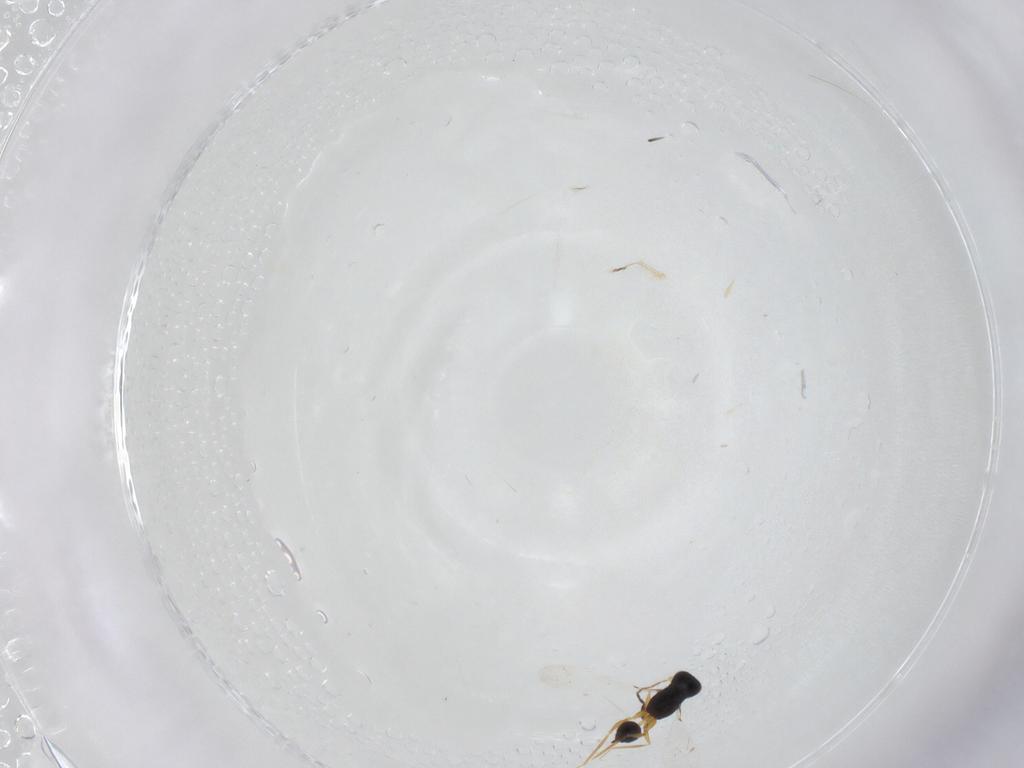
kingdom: Animalia
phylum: Arthropoda
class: Insecta
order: Hymenoptera
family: Mymaridae
